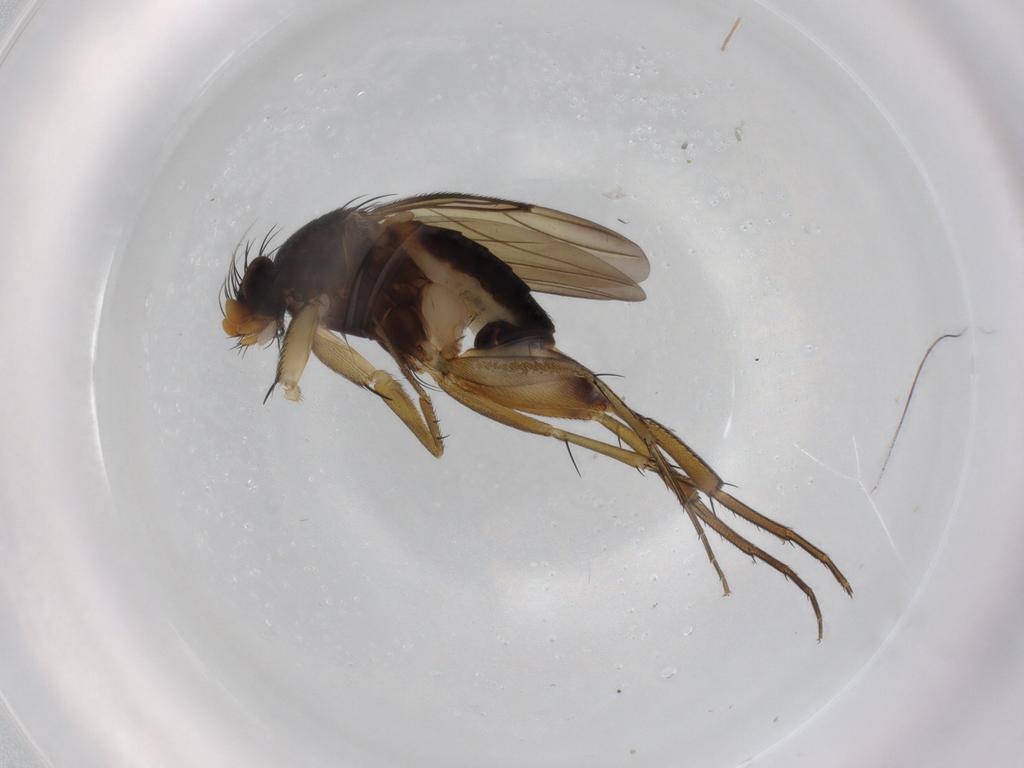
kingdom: Animalia
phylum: Arthropoda
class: Insecta
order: Diptera
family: Phoridae
